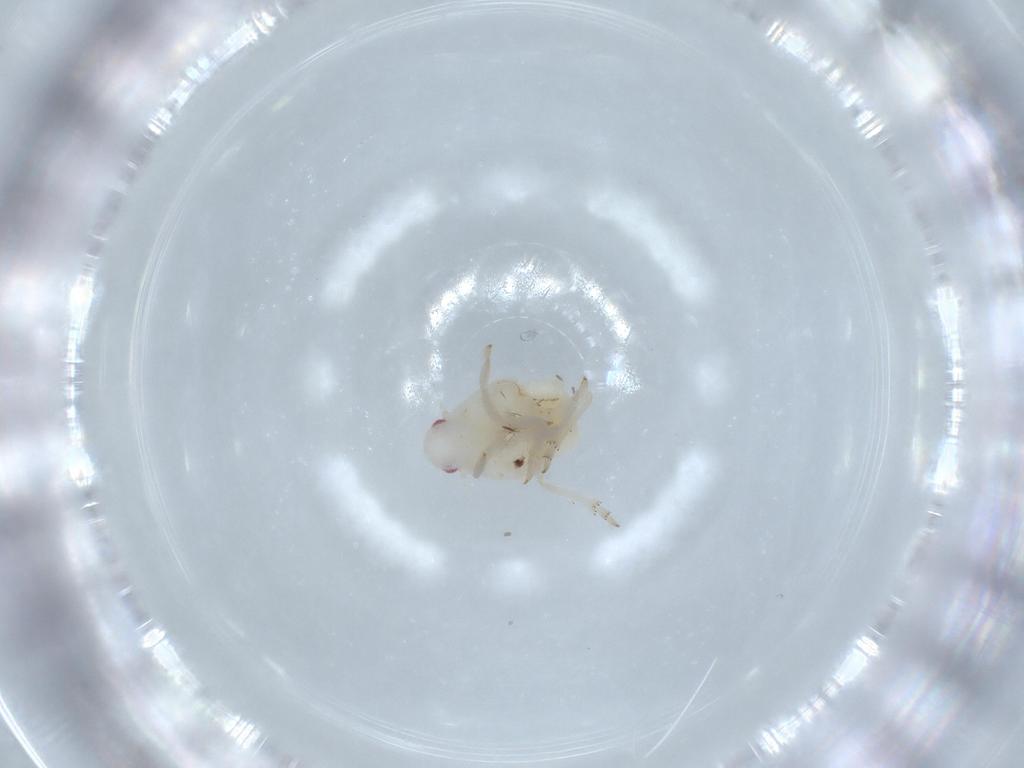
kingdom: Animalia
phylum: Arthropoda
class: Insecta
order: Hemiptera
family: Flatidae
